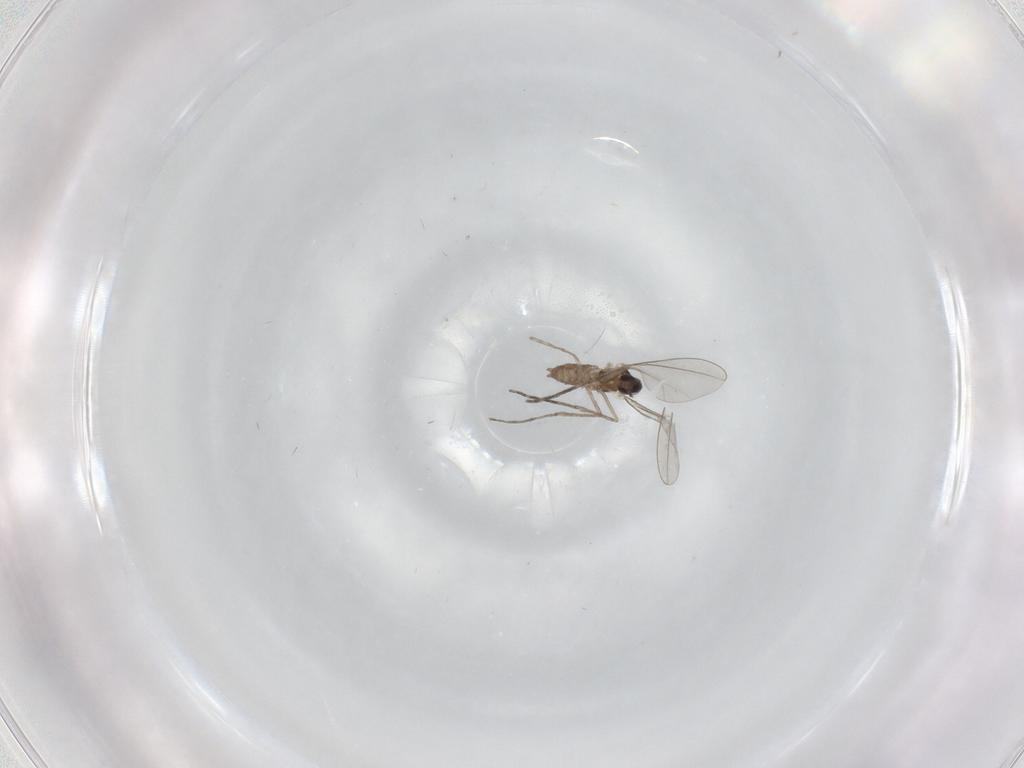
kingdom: Animalia
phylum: Arthropoda
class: Insecta
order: Diptera
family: Cecidomyiidae
